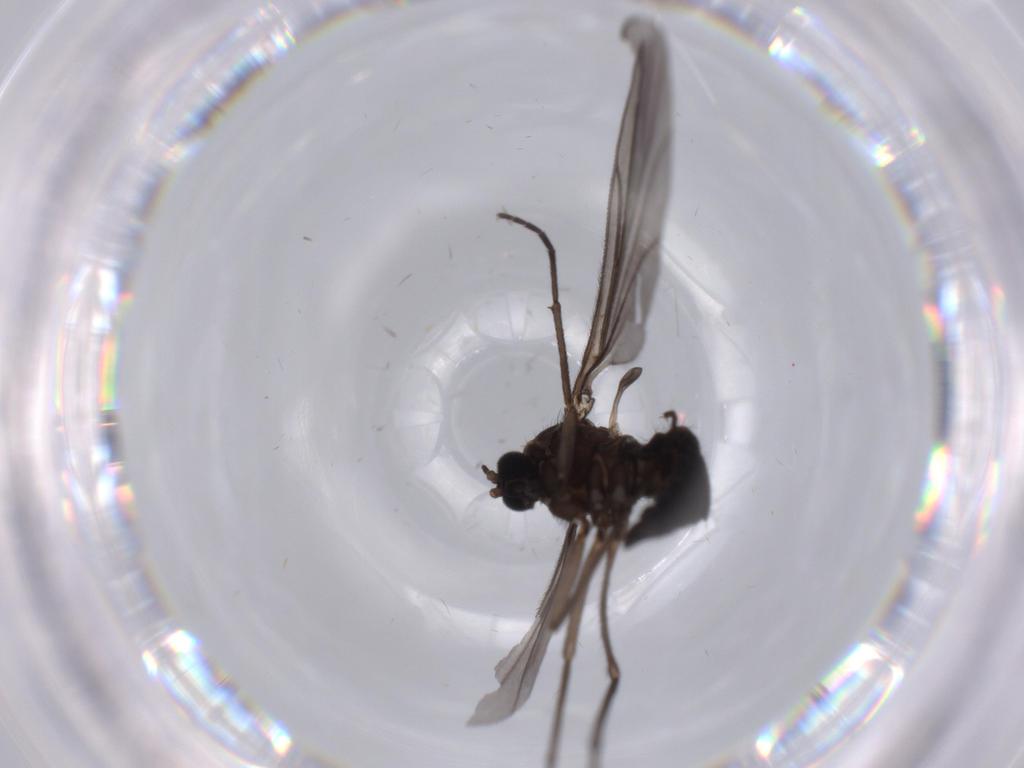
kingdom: Animalia
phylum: Arthropoda
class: Insecta
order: Diptera
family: Sciaridae
